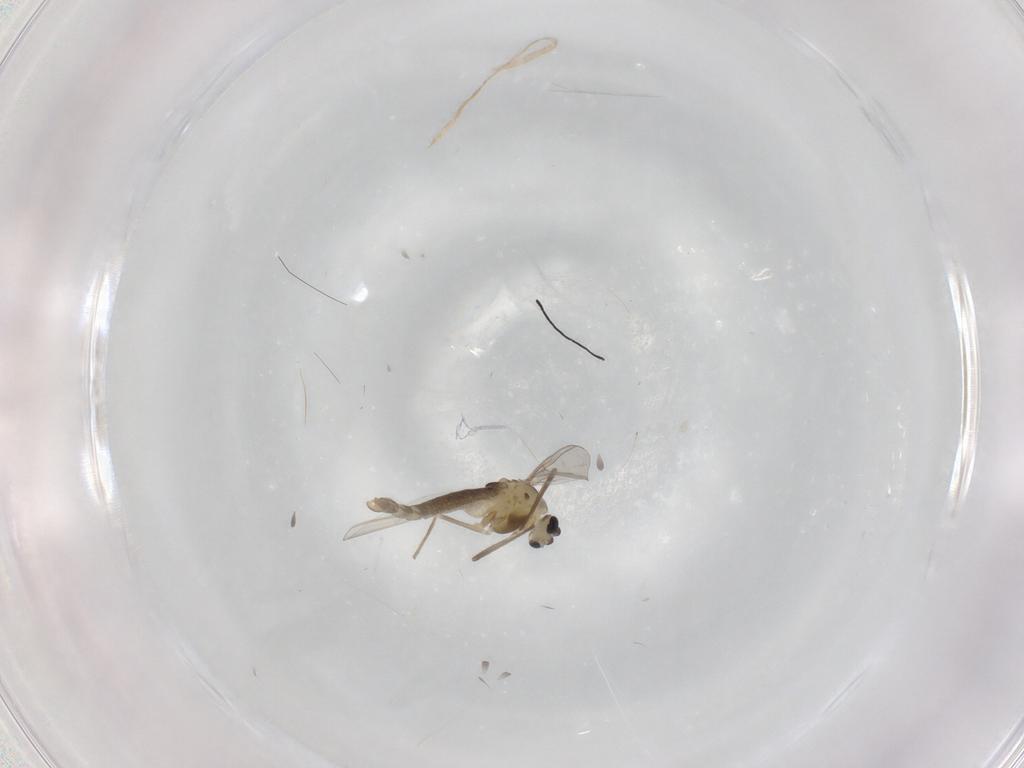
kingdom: Animalia
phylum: Arthropoda
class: Insecta
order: Diptera
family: Chironomidae
